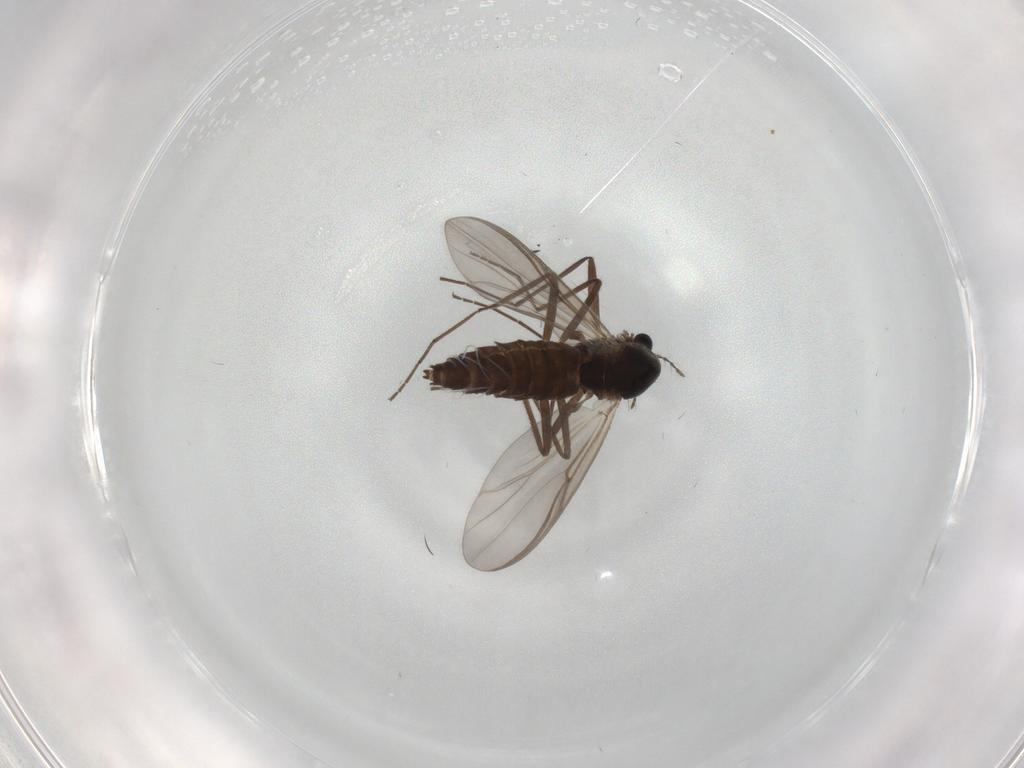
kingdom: Animalia
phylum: Arthropoda
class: Insecta
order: Diptera
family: Chironomidae
